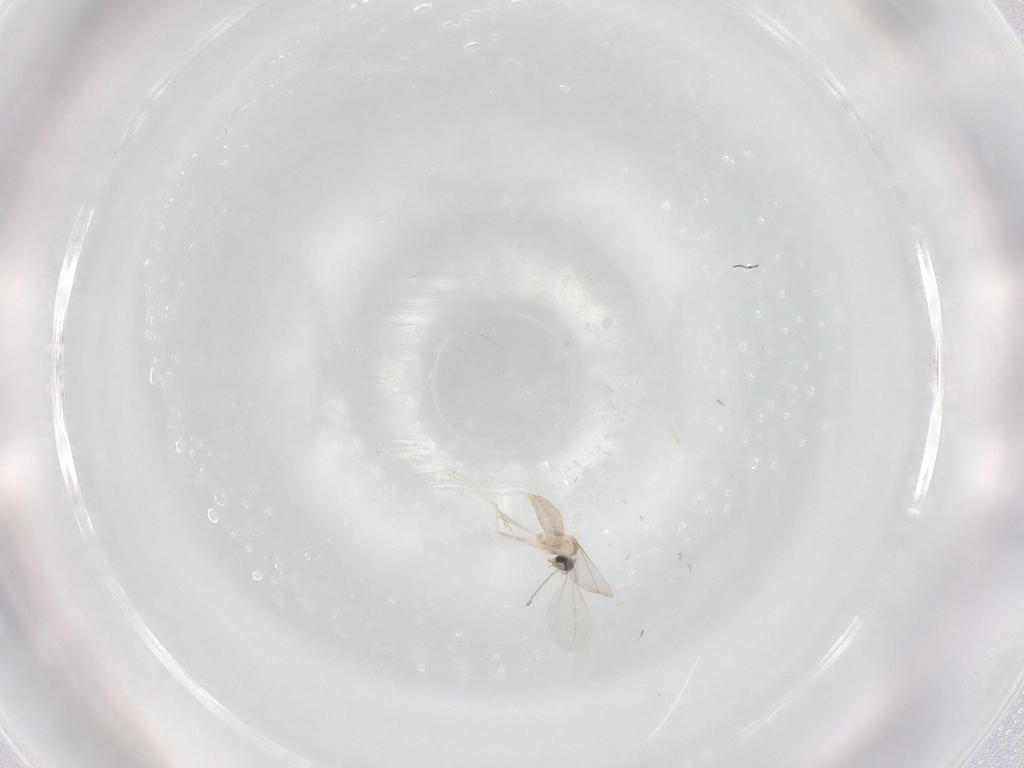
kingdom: Animalia
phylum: Arthropoda
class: Insecta
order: Diptera
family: Cecidomyiidae
